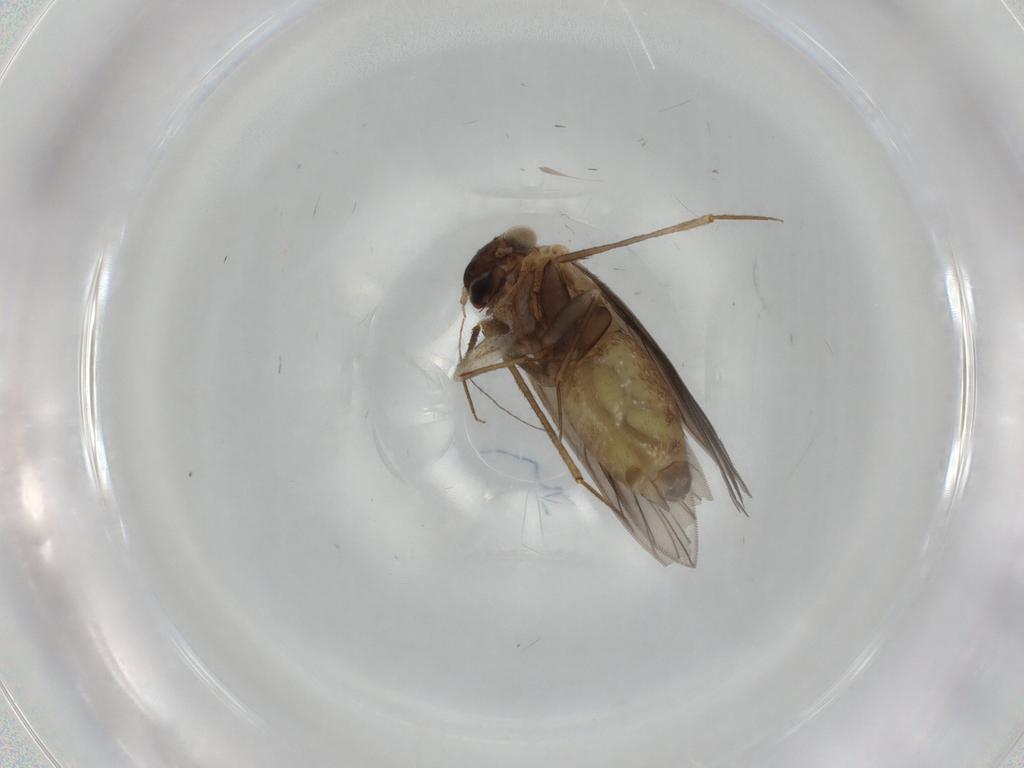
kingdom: Animalia
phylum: Arthropoda
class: Insecta
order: Psocodea
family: Lepidopsocidae
